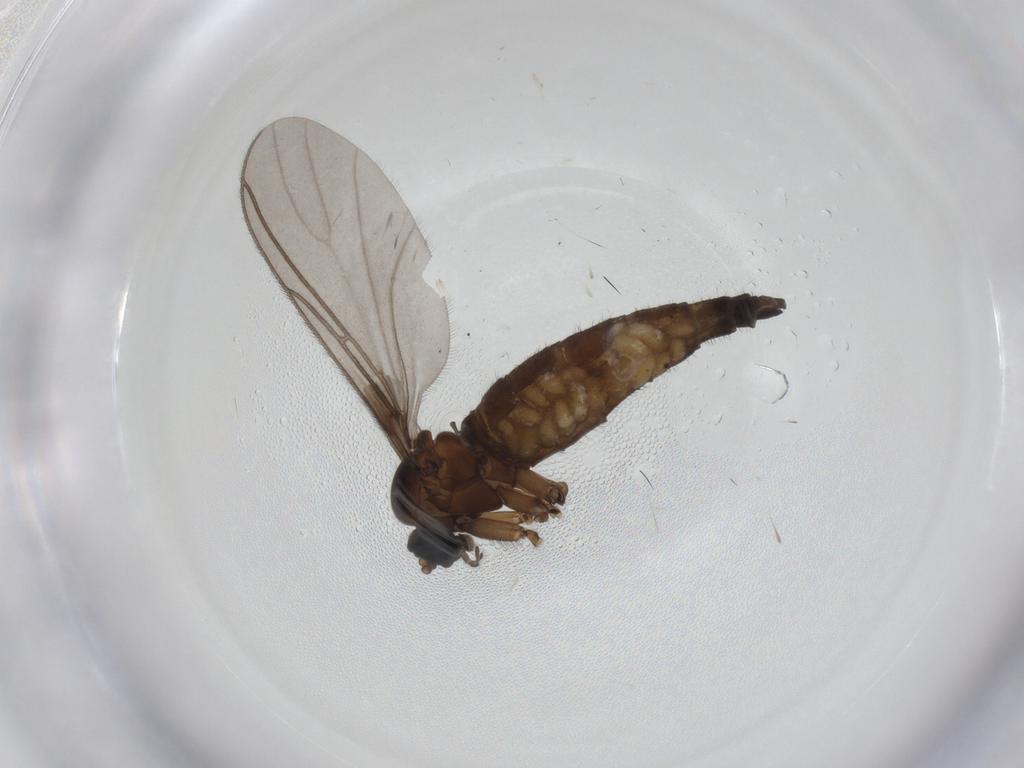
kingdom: Animalia
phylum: Arthropoda
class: Insecta
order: Diptera
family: Sciaridae
